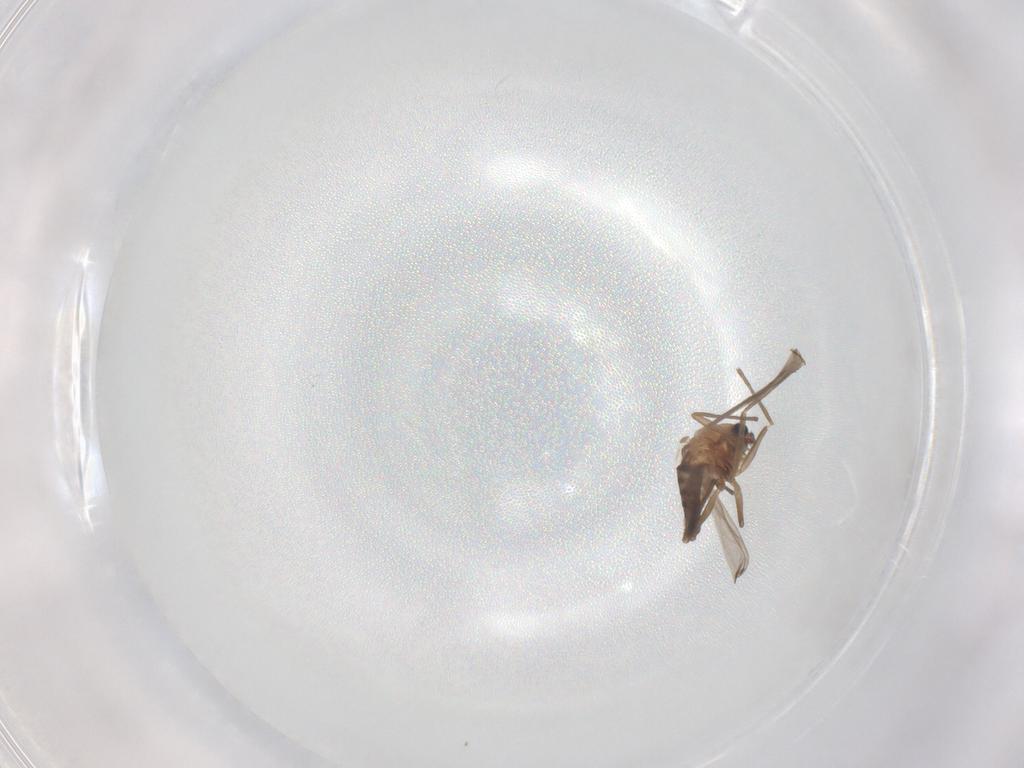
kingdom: Animalia
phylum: Arthropoda
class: Insecta
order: Diptera
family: Chironomidae
